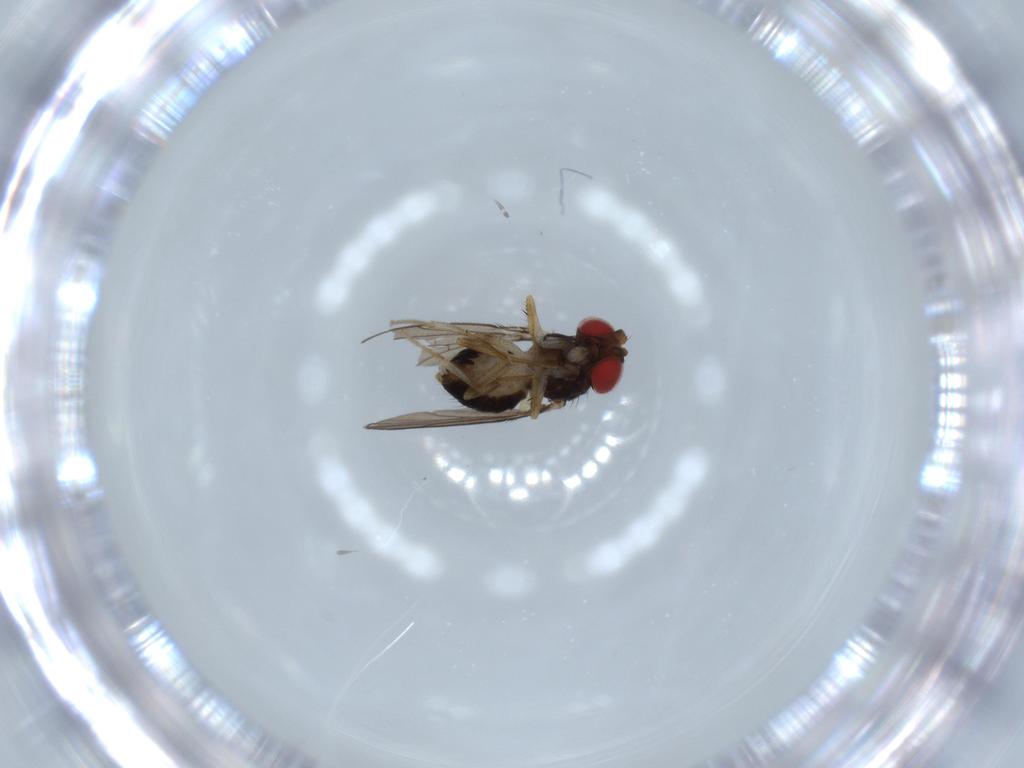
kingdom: Animalia
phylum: Arthropoda
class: Insecta
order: Diptera
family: Drosophilidae
